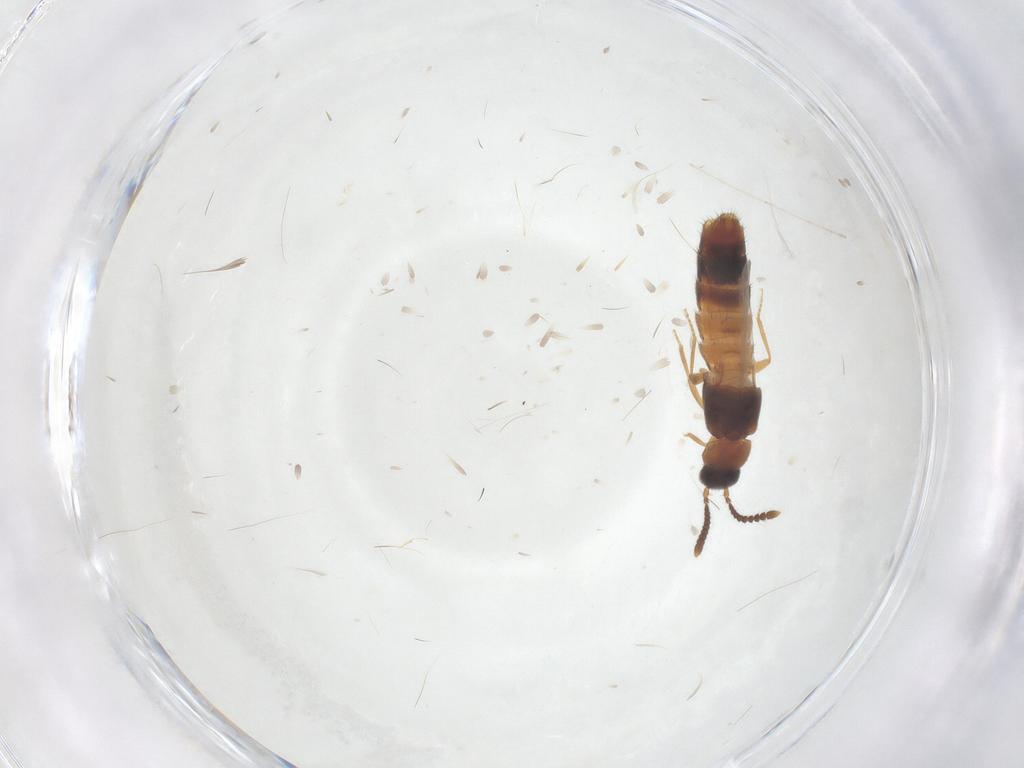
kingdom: Animalia
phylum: Arthropoda
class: Insecta
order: Coleoptera
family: Staphylinidae
